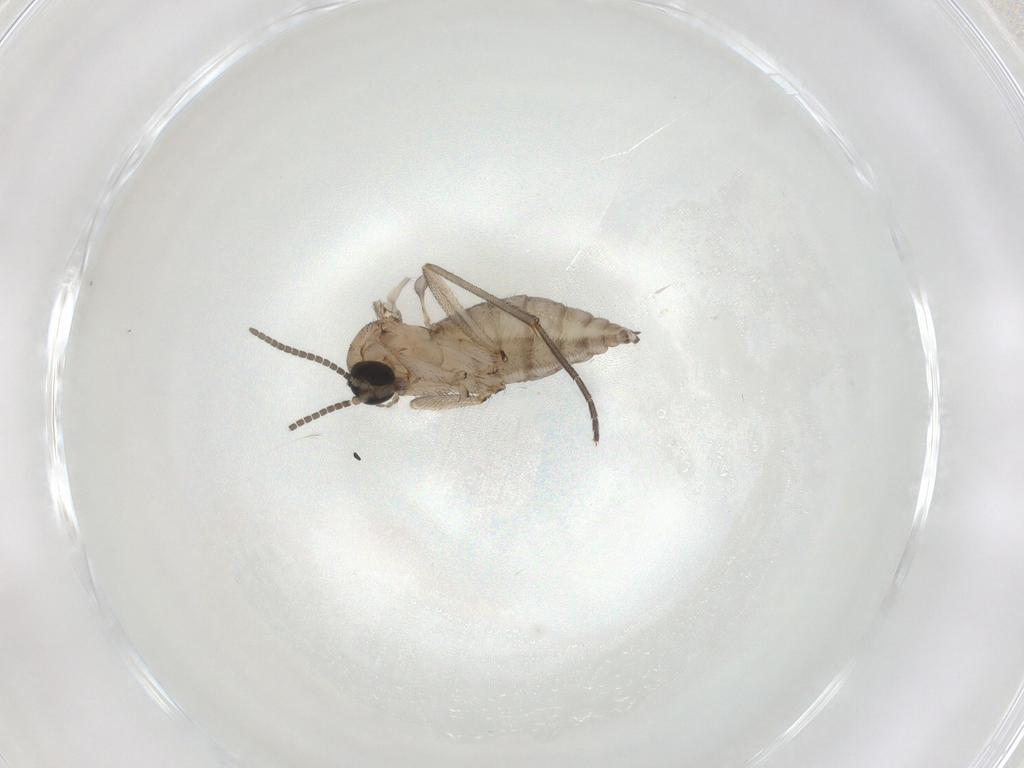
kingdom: Animalia
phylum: Arthropoda
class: Insecta
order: Diptera
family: Sciaridae
